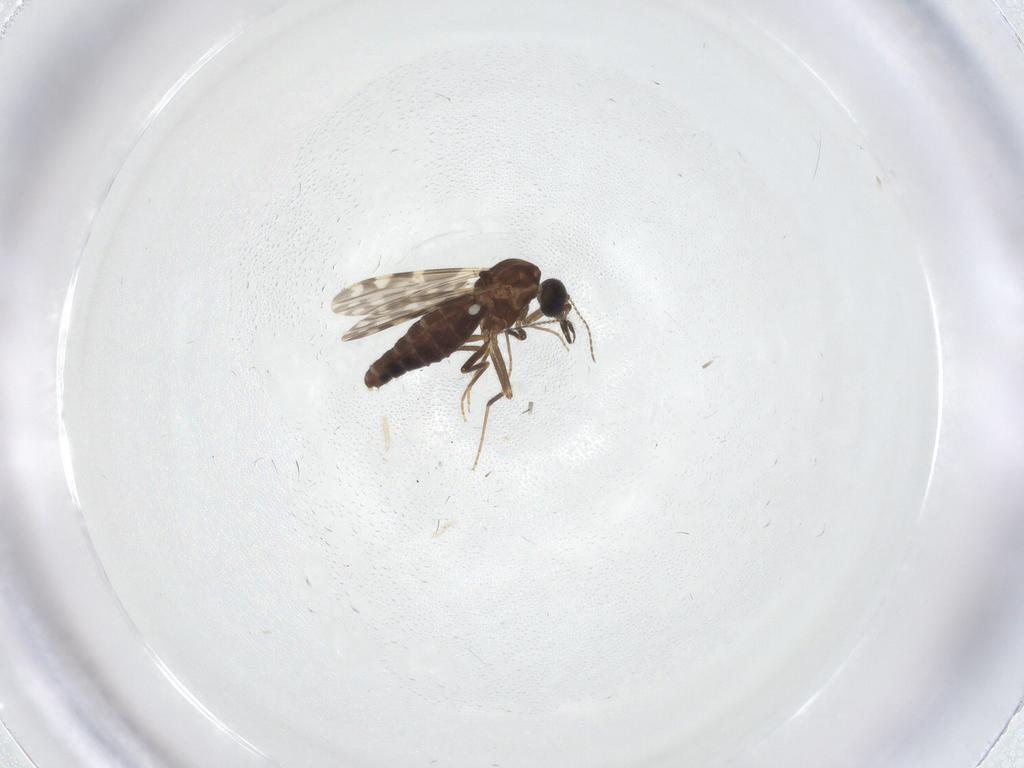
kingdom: Animalia
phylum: Arthropoda
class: Insecta
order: Diptera
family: Ceratopogonidae
